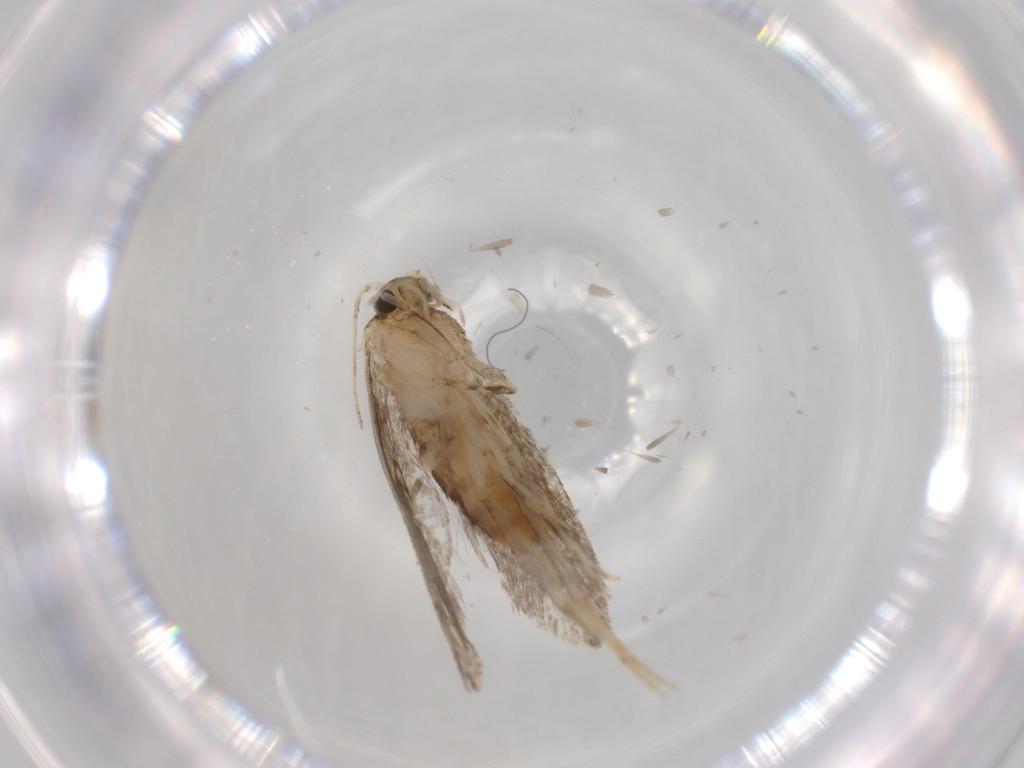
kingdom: Animalia
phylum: Arthropoda
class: Insecta
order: Lepidoptera
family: Tineidae
